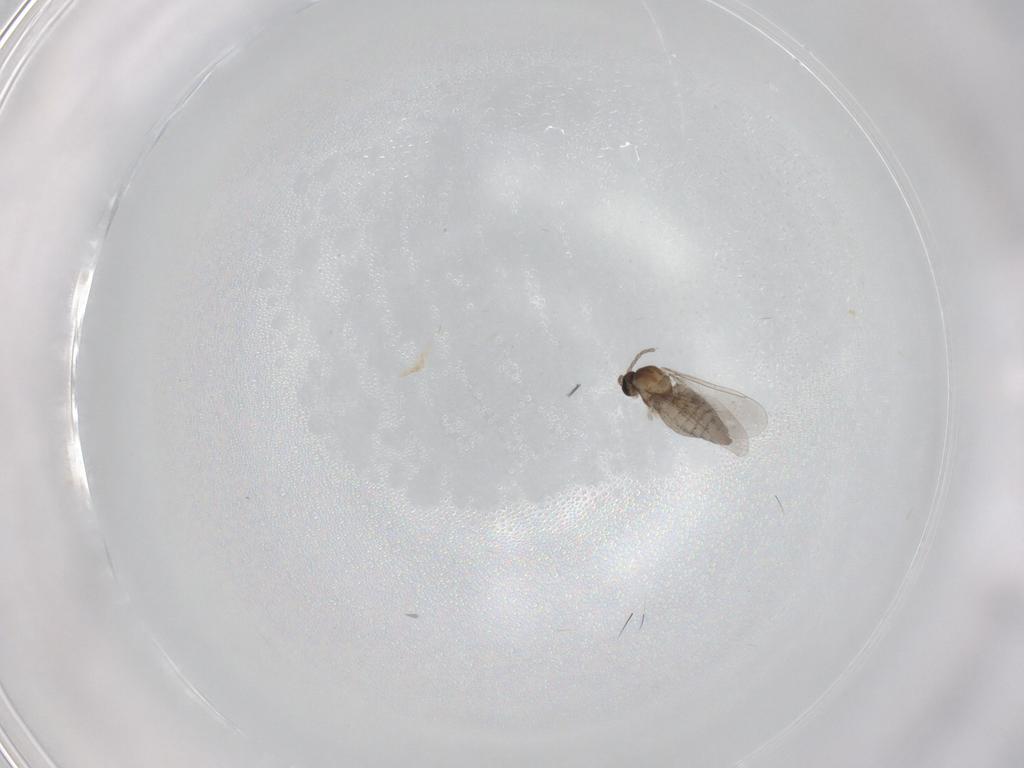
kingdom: Animalia
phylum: Arthropoda
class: Insecta
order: Diptera
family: Cecidomyiidae
